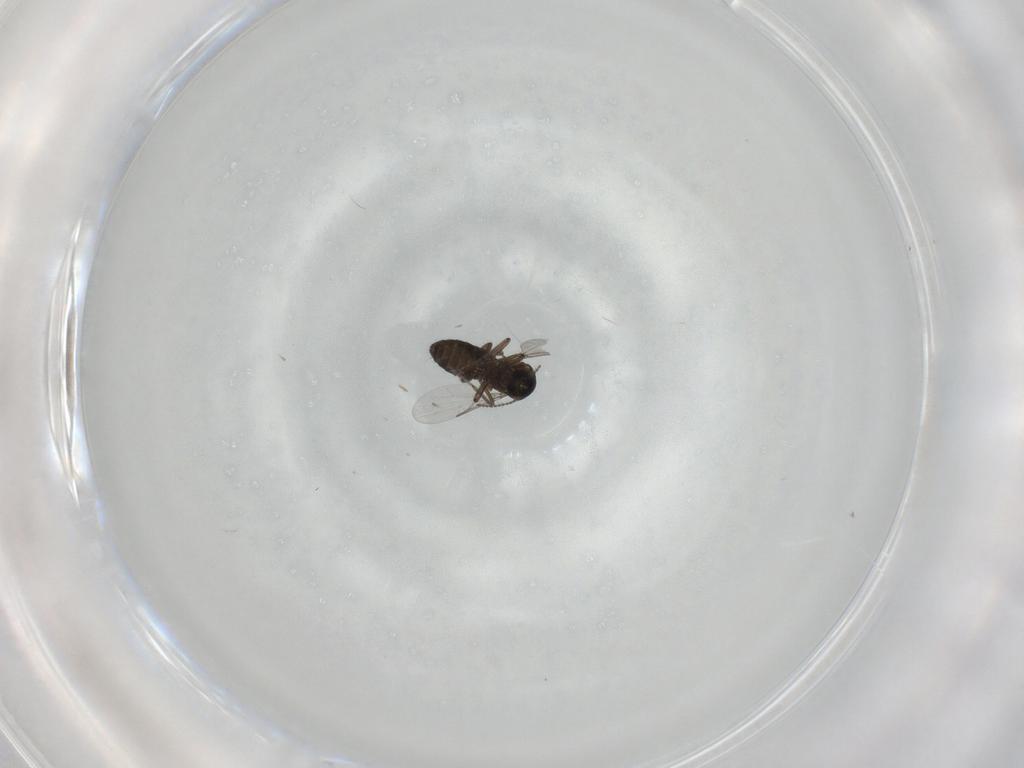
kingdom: Animalia
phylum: Arthropoda
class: Insecta
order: Diptera
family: Ceratopogonidae
